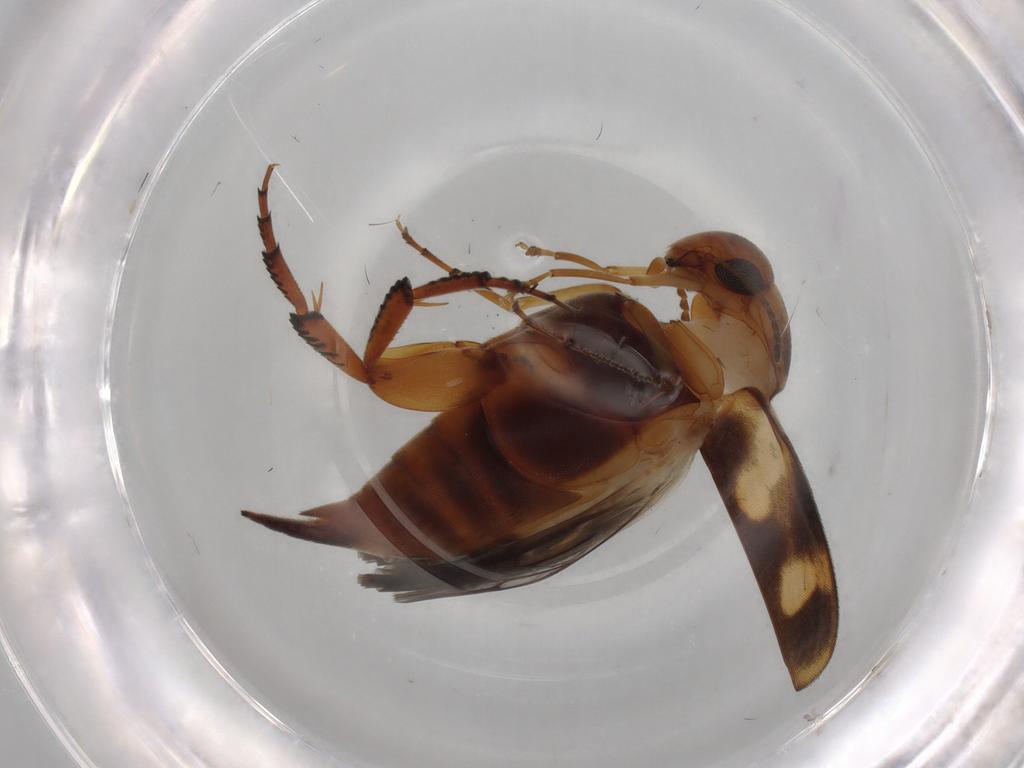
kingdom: Animalia
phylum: Arthropoda
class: Insecta
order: Coleoptera
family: Mordellidae
